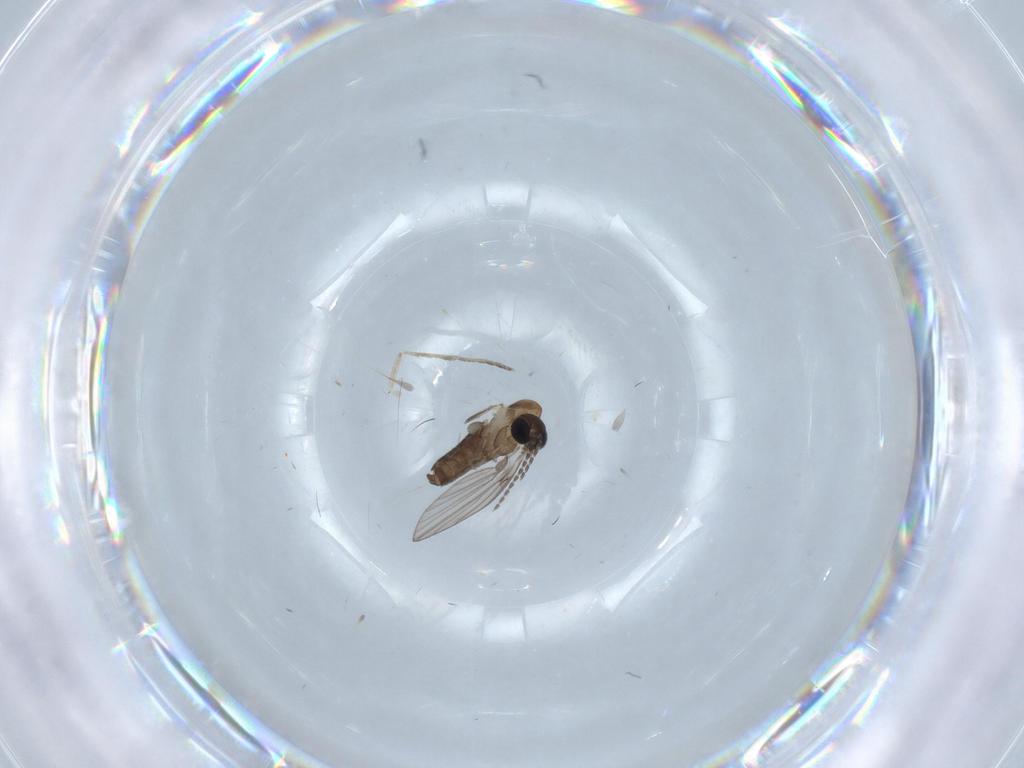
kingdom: Animalia
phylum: Arthropoda
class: Insecta
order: Diptera
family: Psychodidae
